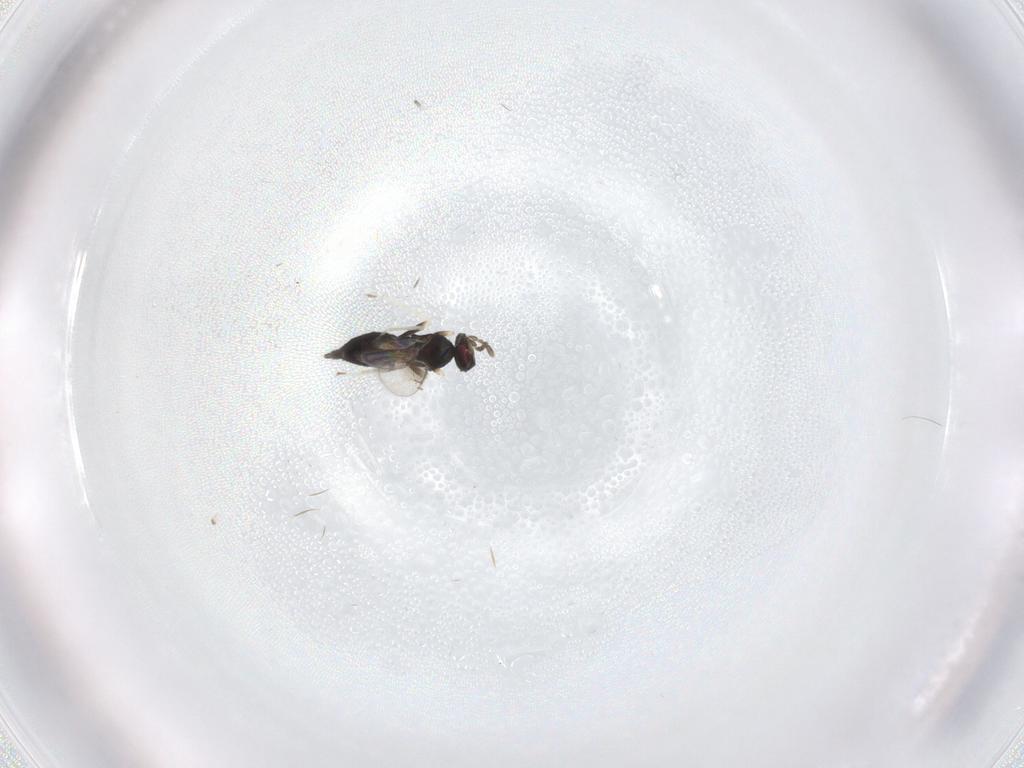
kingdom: Animalia
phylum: Arthropoda
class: Insecta
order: Hymenoptera
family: Eulophidae
